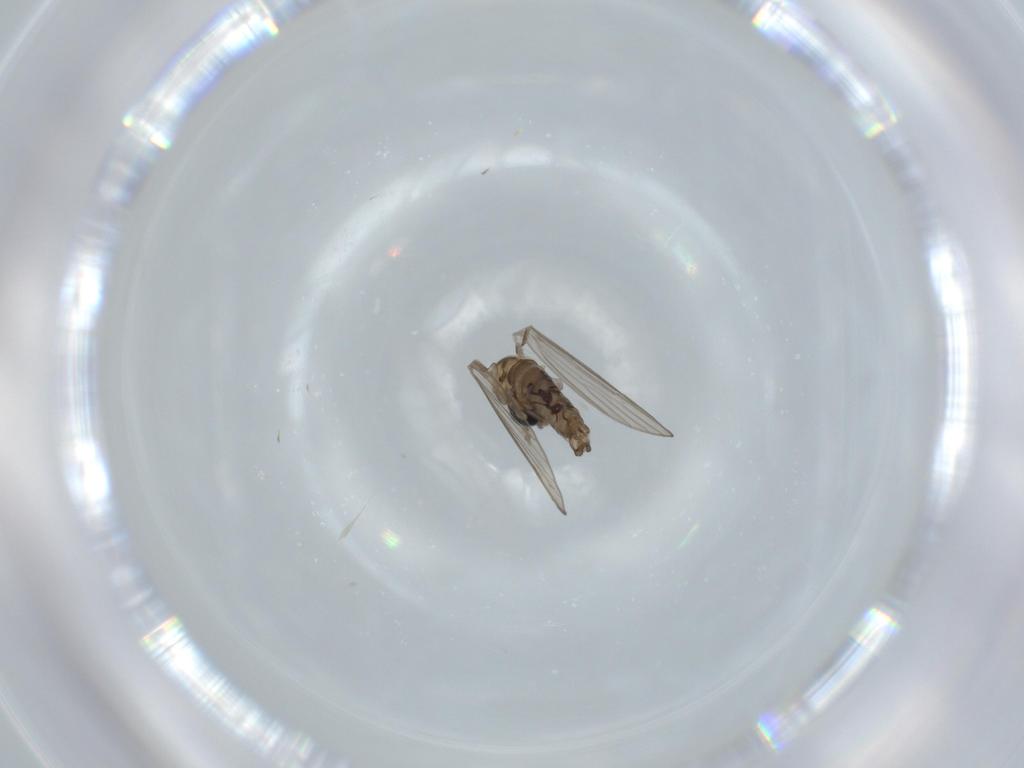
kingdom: Animalia
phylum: Arthropoda
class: Insecta
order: Diptera
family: Psychodidae
